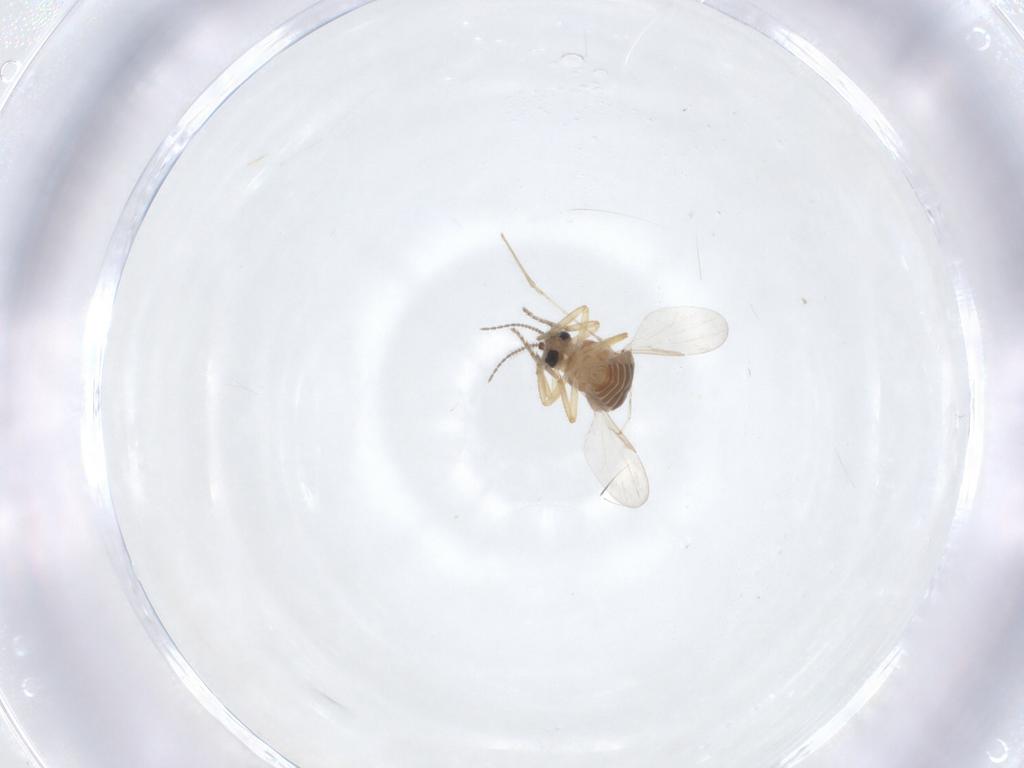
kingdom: Animalia
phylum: Arthropoda
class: Insecta
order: Diptera
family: Ceratopogonidae
